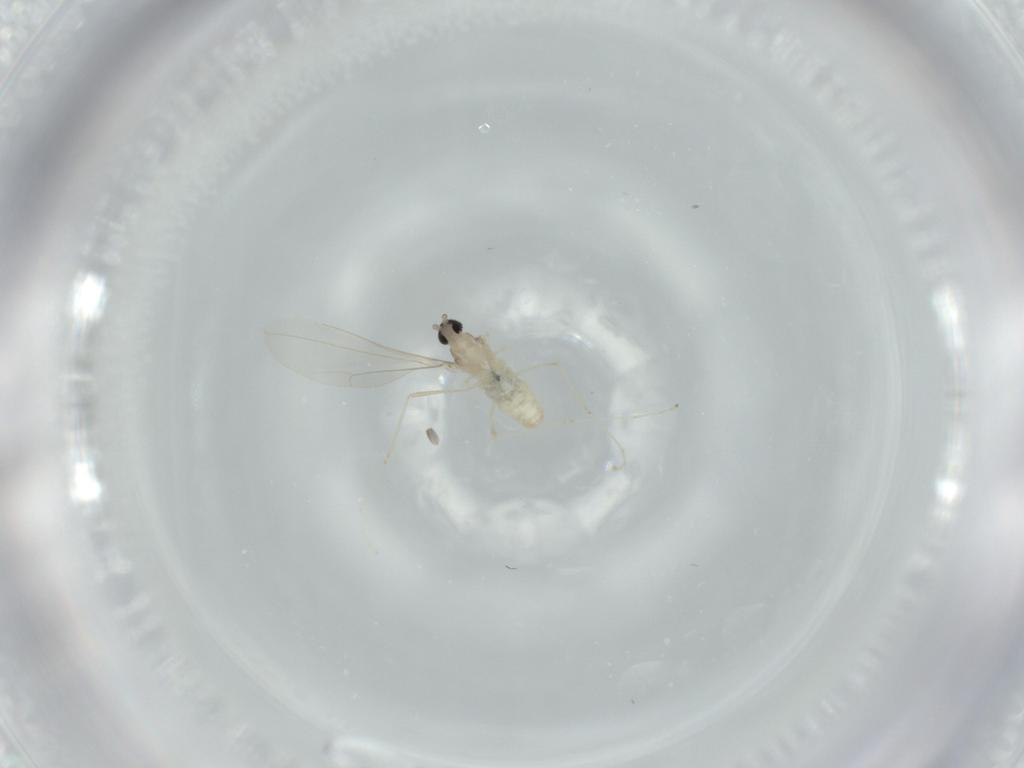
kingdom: Animalia
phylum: Arthropoda
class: Insecta
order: Diptera
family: Cecidomyiidae
